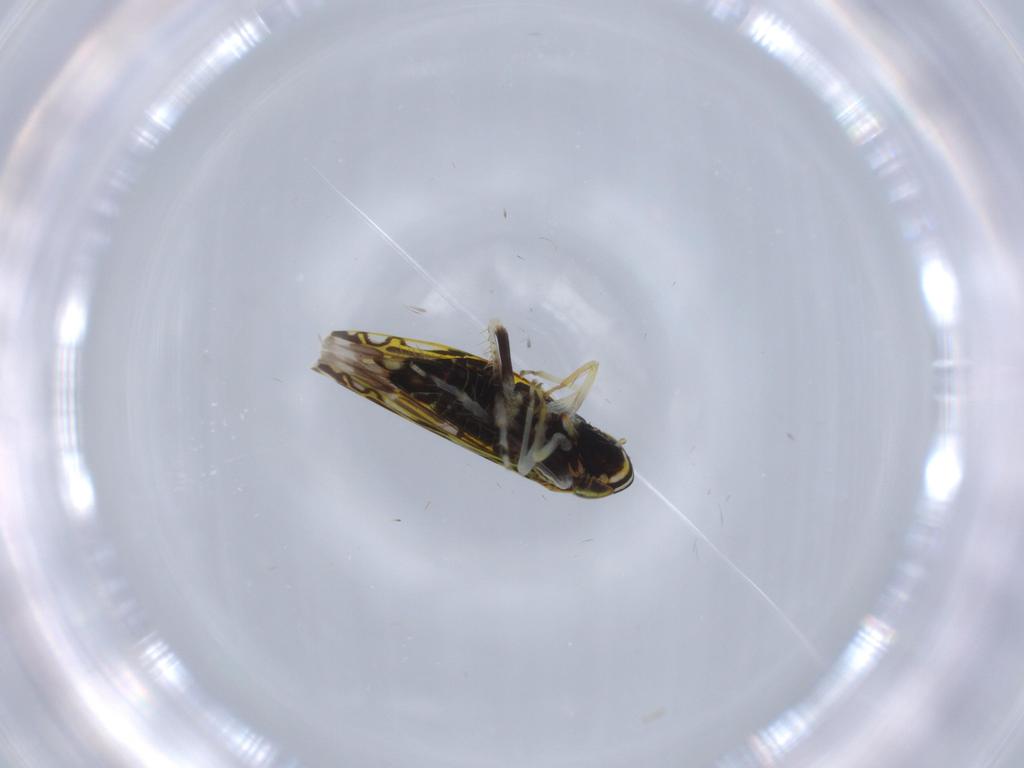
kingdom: Animalia
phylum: Arthropoda
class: Insecta
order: Hemiptera
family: Cicadellidae
